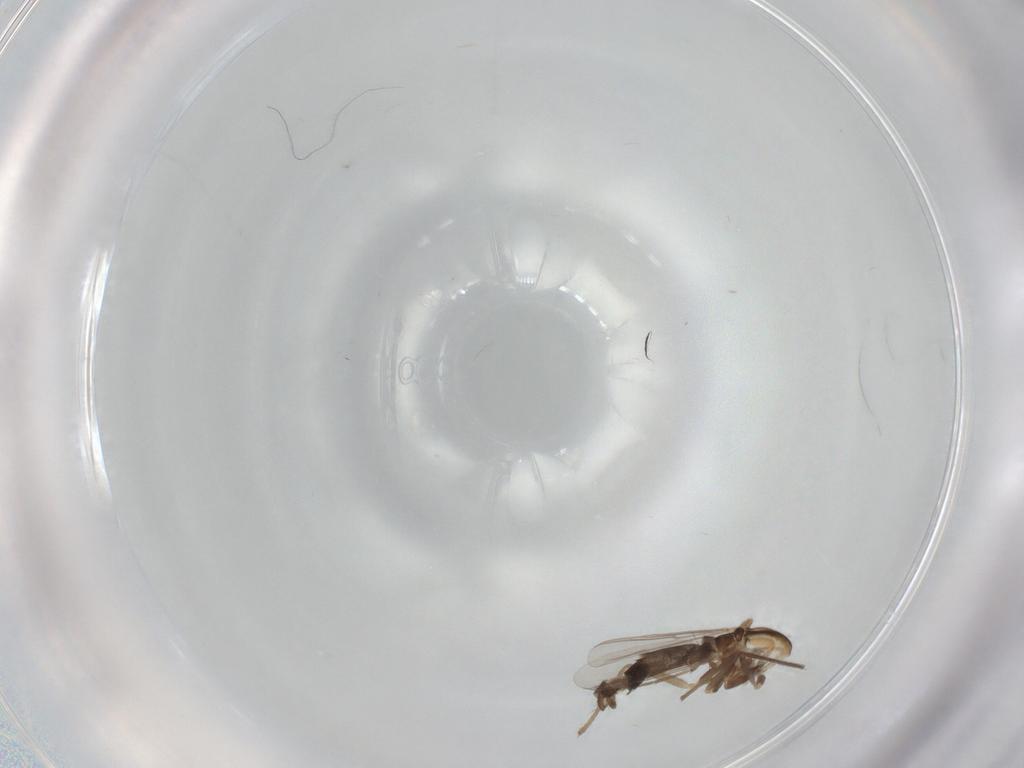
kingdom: Animalia
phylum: Arthropoda
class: Insecta
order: Diptera
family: Chironomidae
